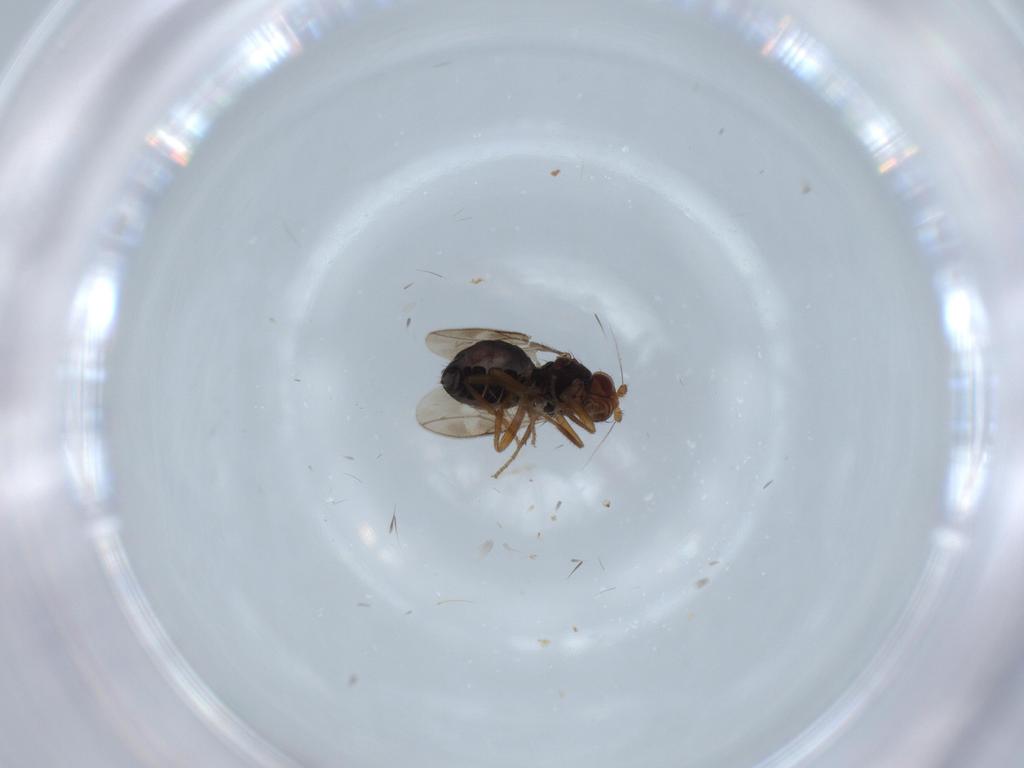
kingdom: Animalia
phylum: Arthropoda
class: Insecta
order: Diptera
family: Sphaeroceridae
